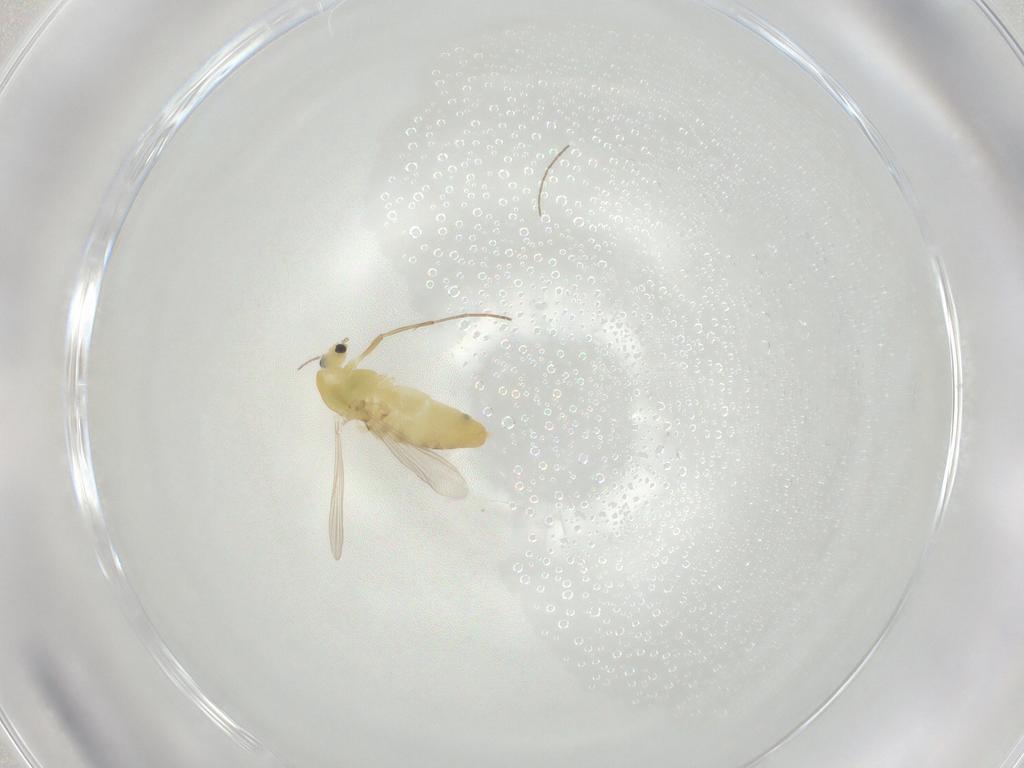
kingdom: Animalia
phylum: Arthropoda
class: Insecta
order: Diptera
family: Chironomidae
